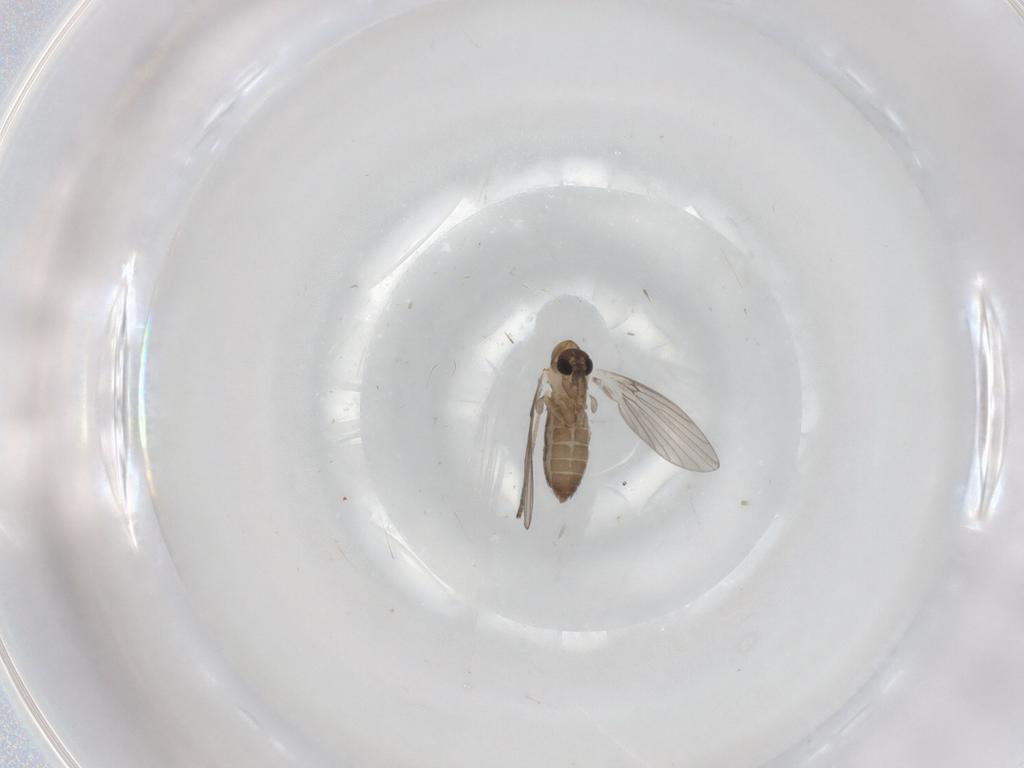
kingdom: Animalia
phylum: Arthropoda
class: Insecta
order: Diptera
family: Psychodidae
